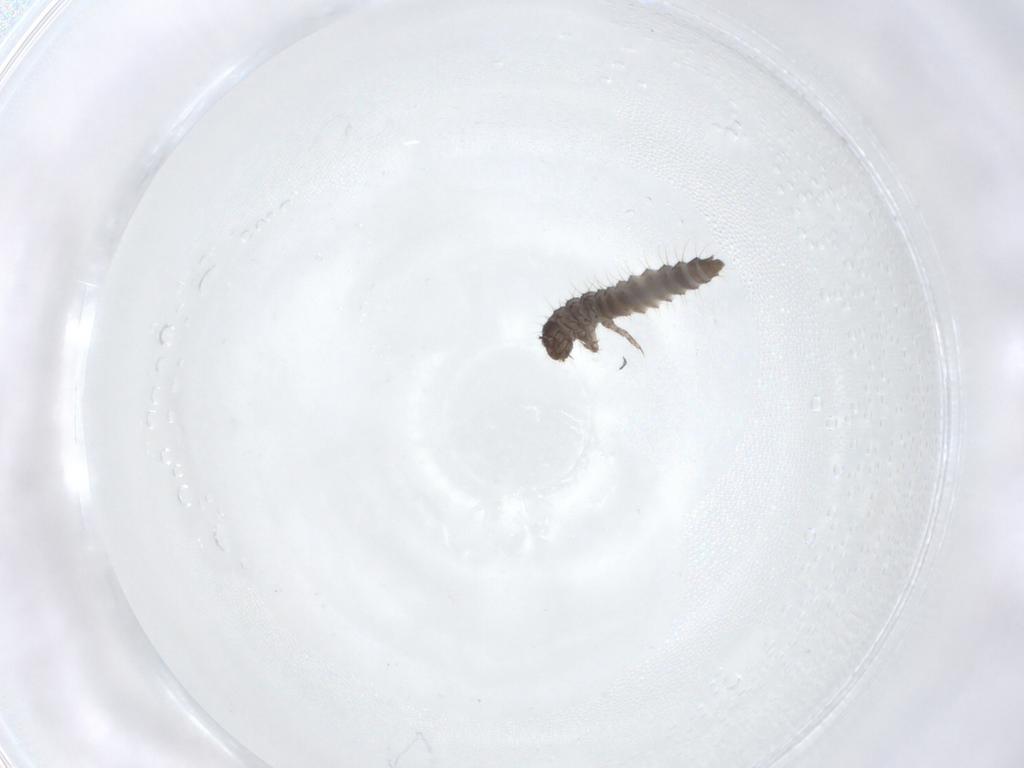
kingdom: Animalia
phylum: Arthropoda
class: Insecta
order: Coleoptera
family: Staphylinidae
